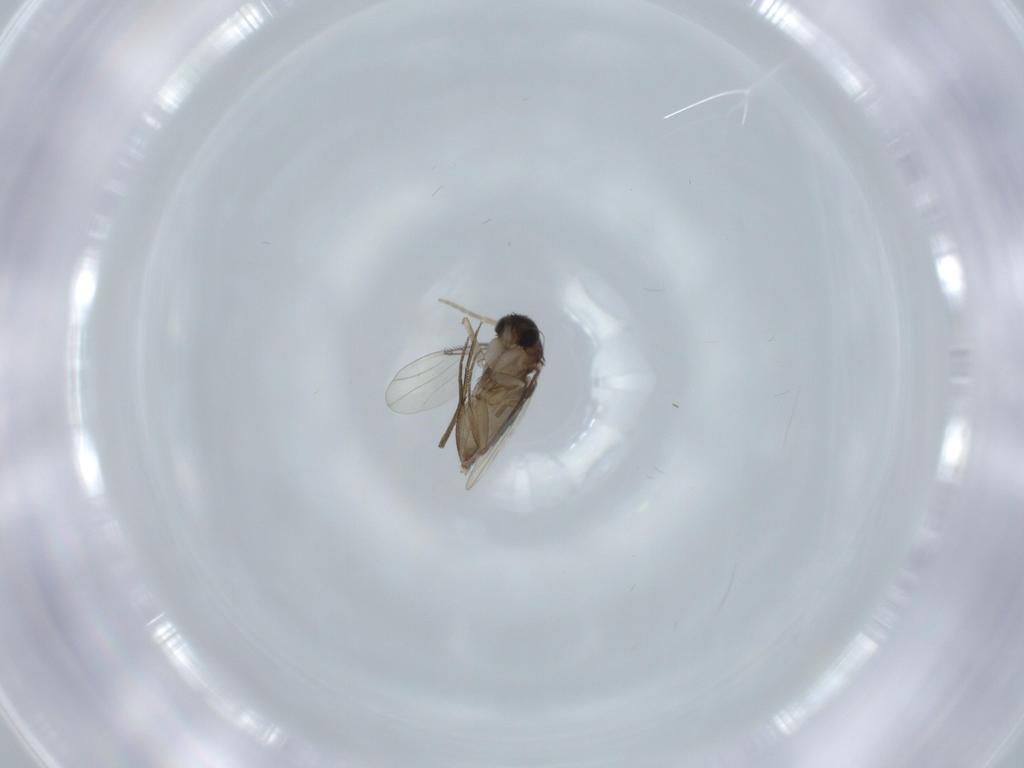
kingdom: Animalia
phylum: Arthropoda
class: Insecta
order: Diptera
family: Phoridae
